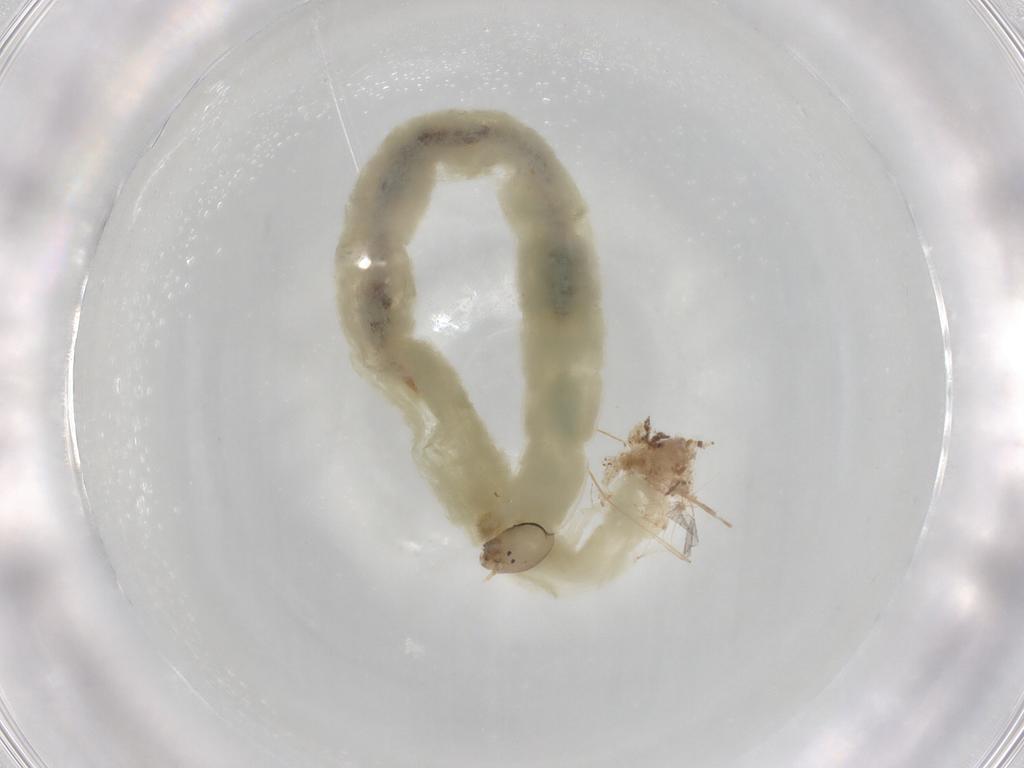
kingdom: Animalia
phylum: Arthropoda
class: Insecta
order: Diptera
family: Chironomidae
